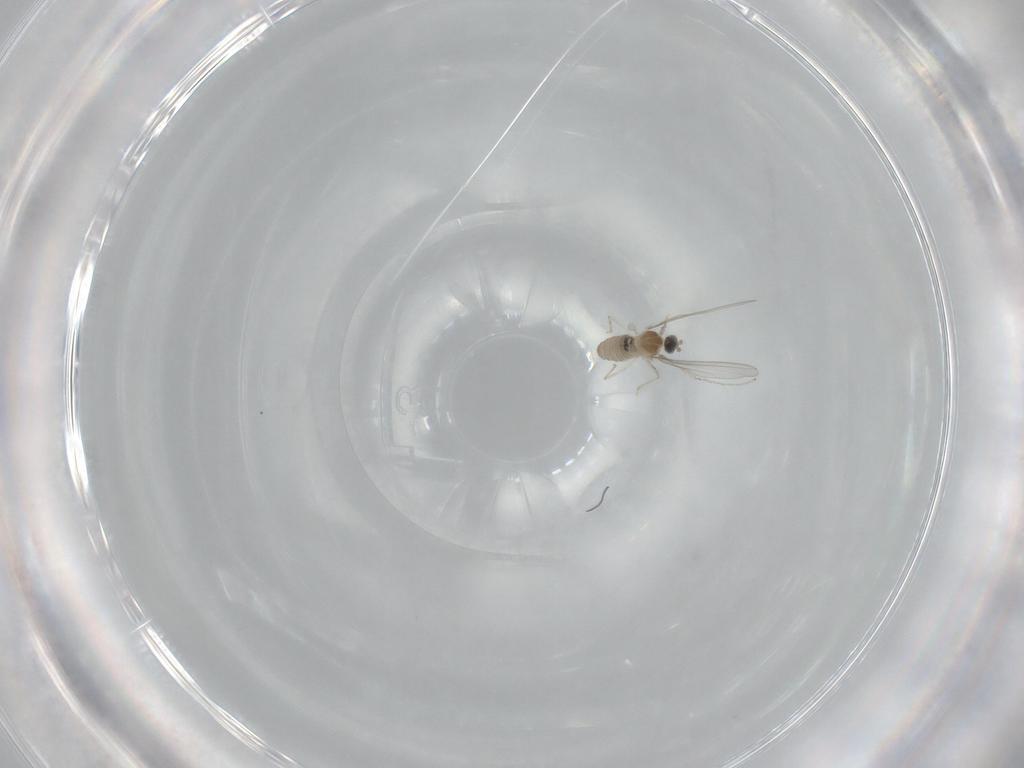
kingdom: Animalia
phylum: Arthropoda
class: Insecta
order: Diptera
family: Cecidomyiidae
